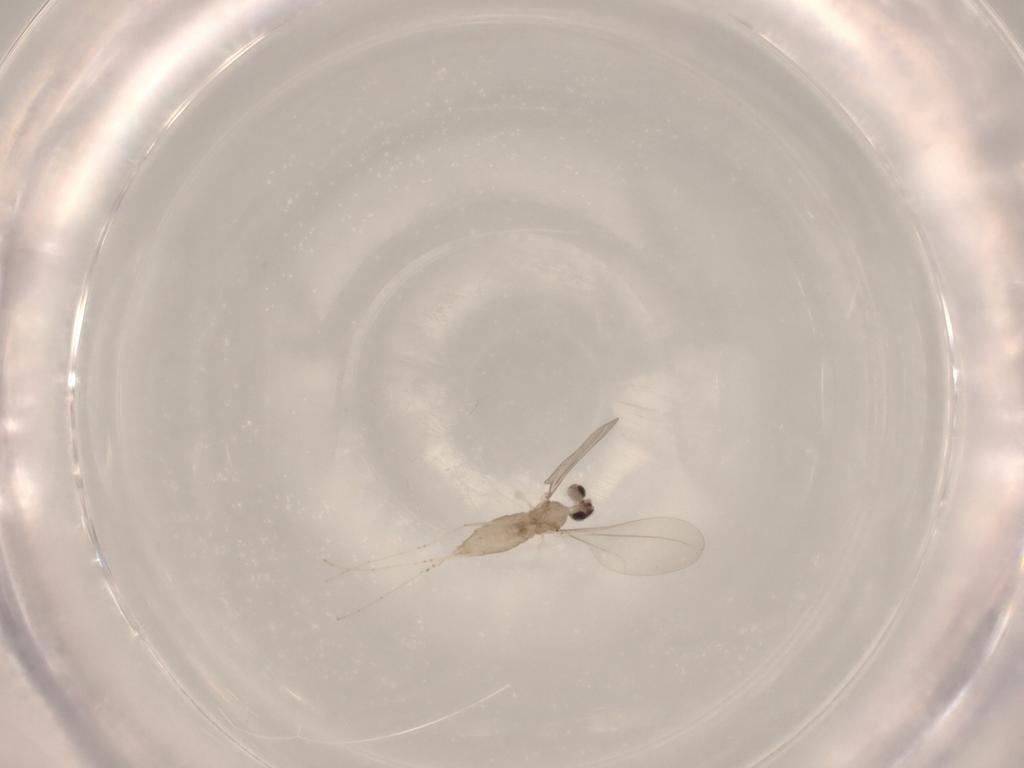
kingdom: Animalia
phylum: Arthropoda
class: Insecta
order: Diptera
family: Cecidomyiidae
